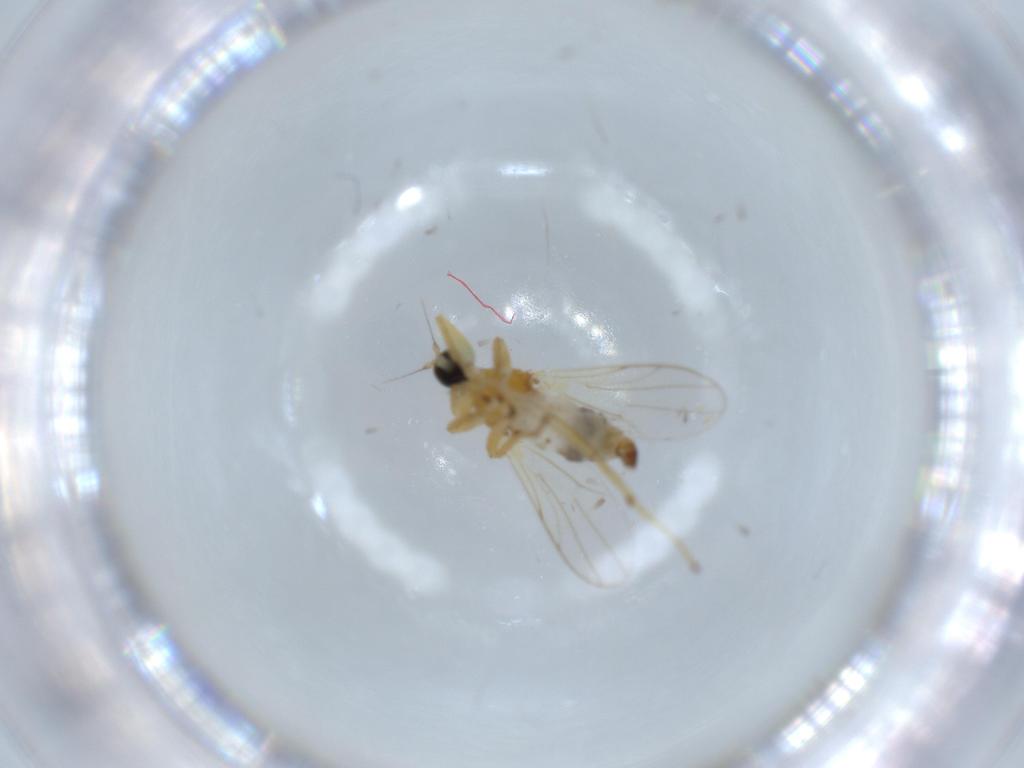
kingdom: Animalia
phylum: Arthropoda
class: Insecta
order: Diptera
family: Hybotidae
